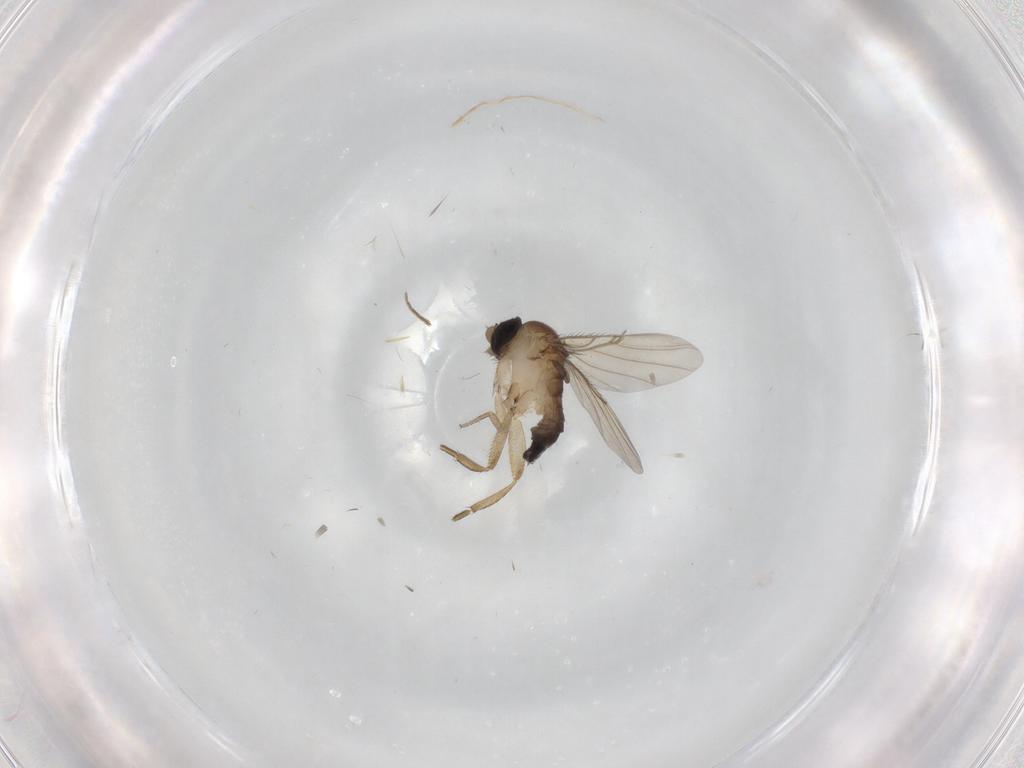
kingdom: Animalia
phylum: Arthropoda
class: Insecta
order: Diptera
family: Phoridae
